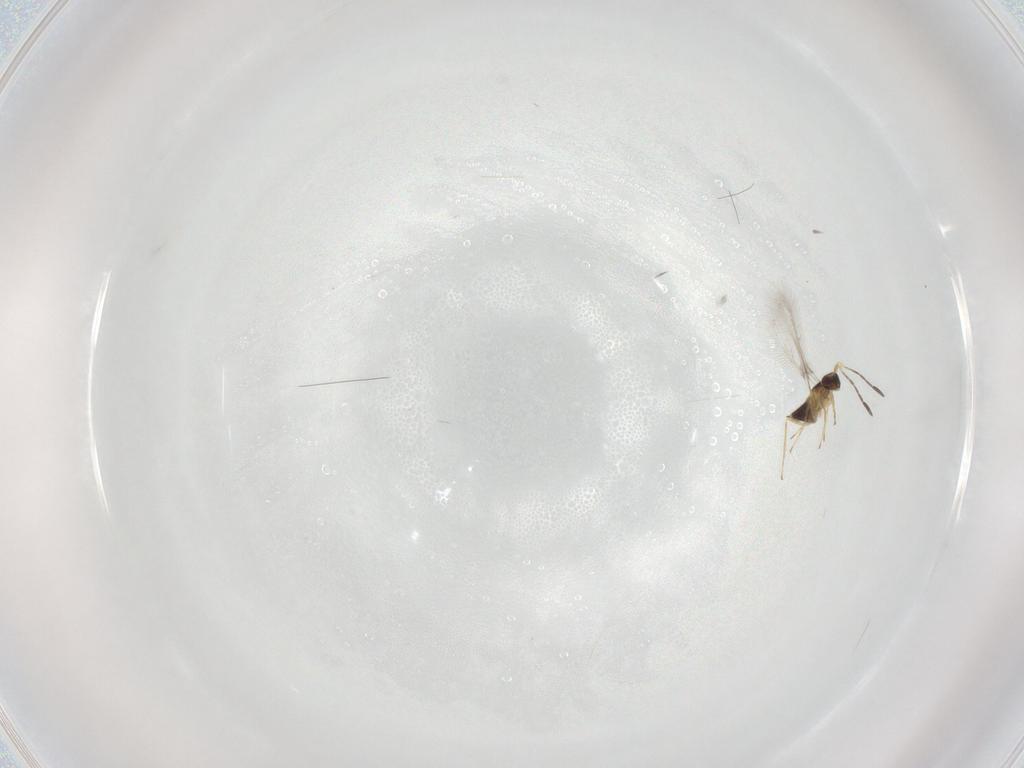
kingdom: Animalia
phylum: Arthropoda
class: Insecta
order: Hymenoptera
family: Mymaridae
